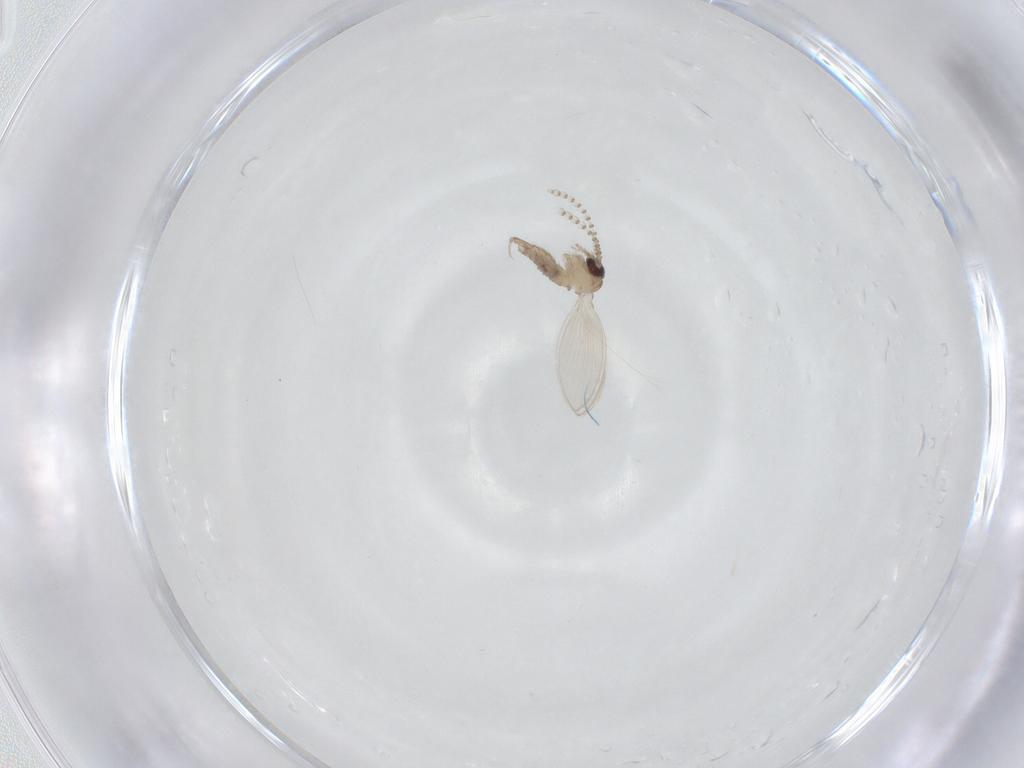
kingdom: Animalia
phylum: Arthropoda
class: Insecta
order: Diptera
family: Psychodidae
